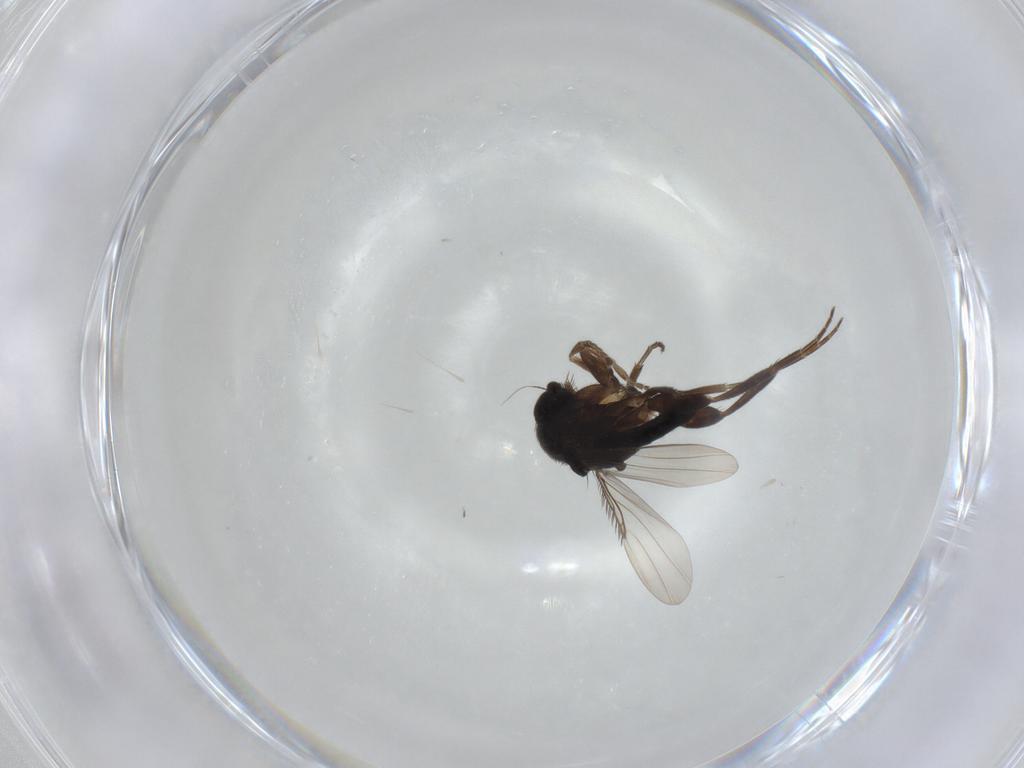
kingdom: Animalia
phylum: Arthropoda
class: Insecta
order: Diptera
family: Phoridae
